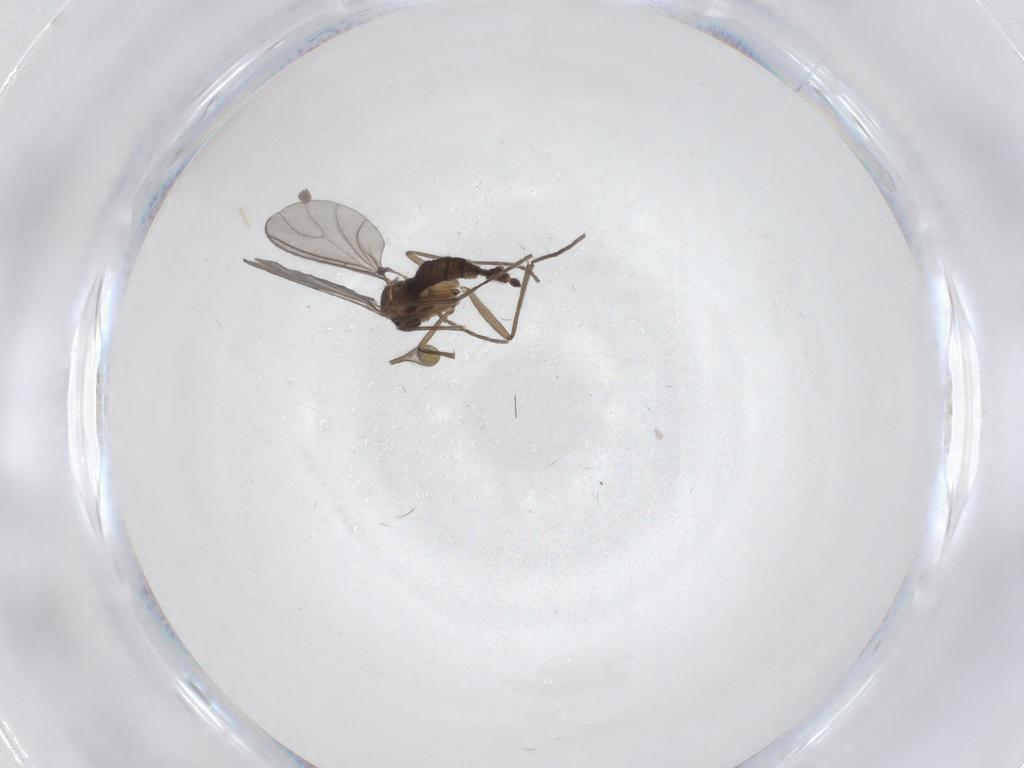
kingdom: Animalia
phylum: Arthropoda
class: Insecta
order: Diptera
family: Sciaridae
